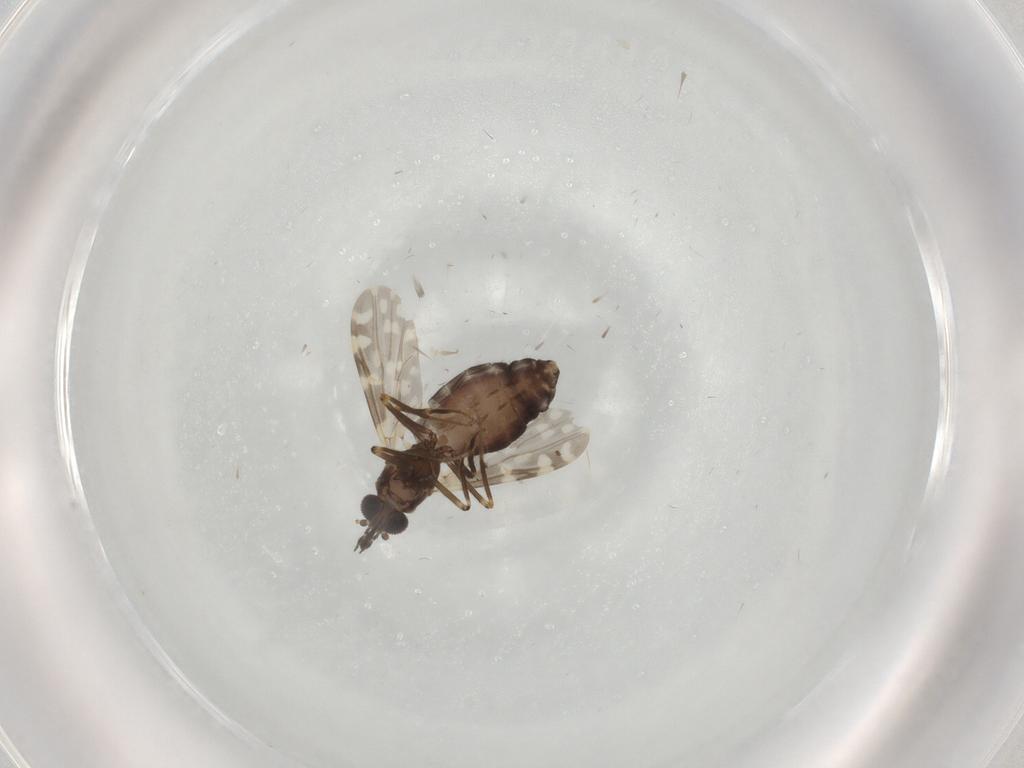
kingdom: Animalia
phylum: Arthropoda
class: Insecta
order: Diptera
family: Ceratopogonidae
